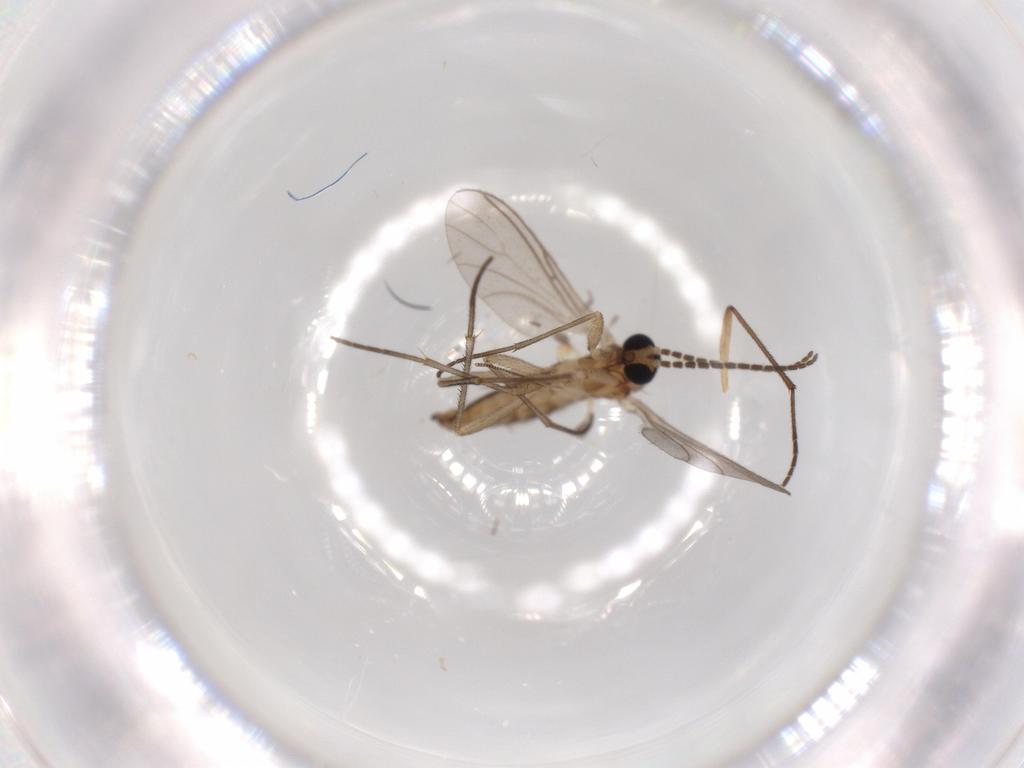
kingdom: Animalia
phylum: Arthropoda
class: Insecta
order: Diptera
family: Sciaridae
